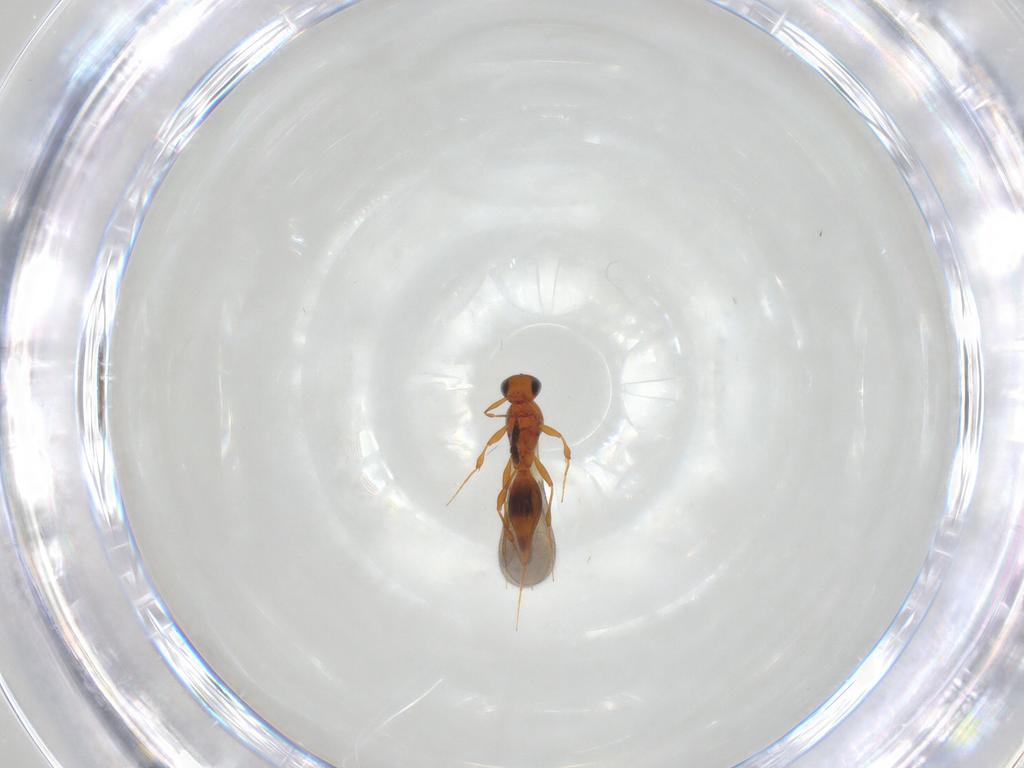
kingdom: Animalia
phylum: Arthropoda
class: Insecta
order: Hymenoptera
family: Platygastridae
